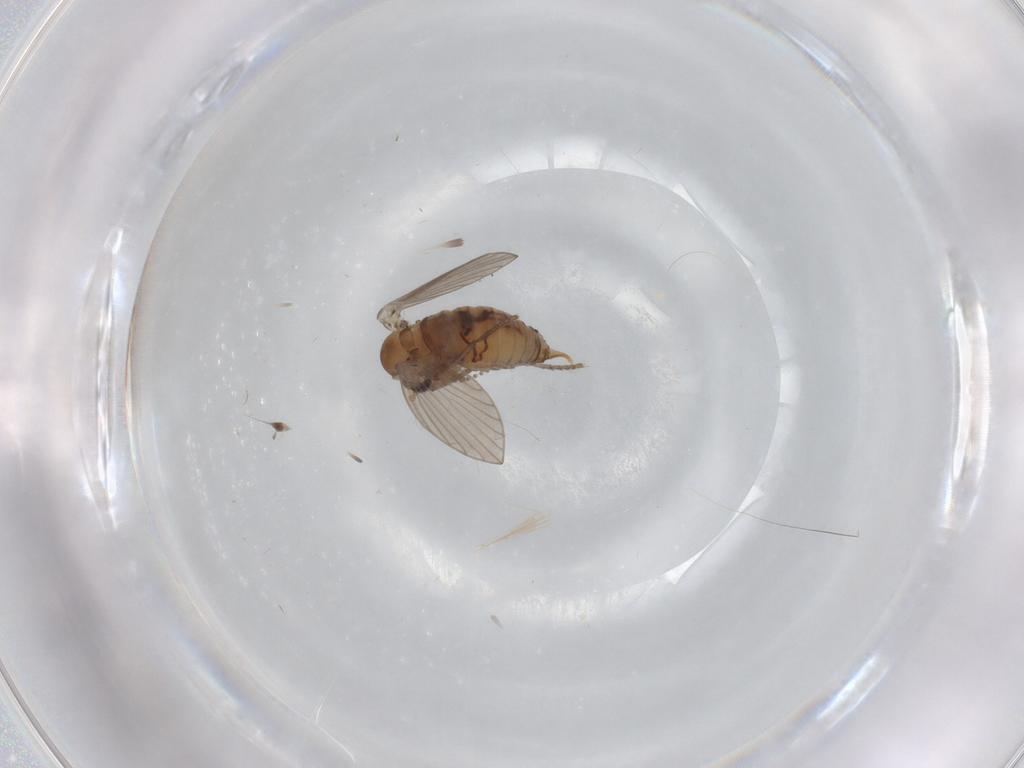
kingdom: Animalia
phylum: Arthropoda
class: Insecta
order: Diptera
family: Psychodidae
